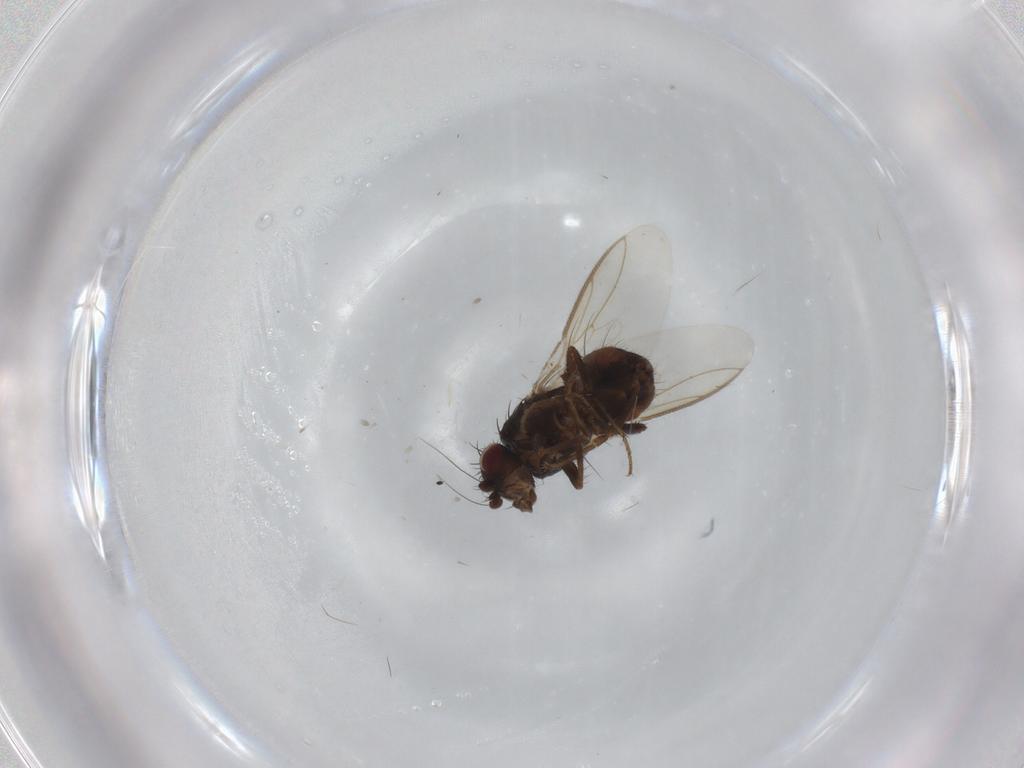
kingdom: Animalia
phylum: Arthropoda
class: Insecta
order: Diptera
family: Sphaeroceridae
